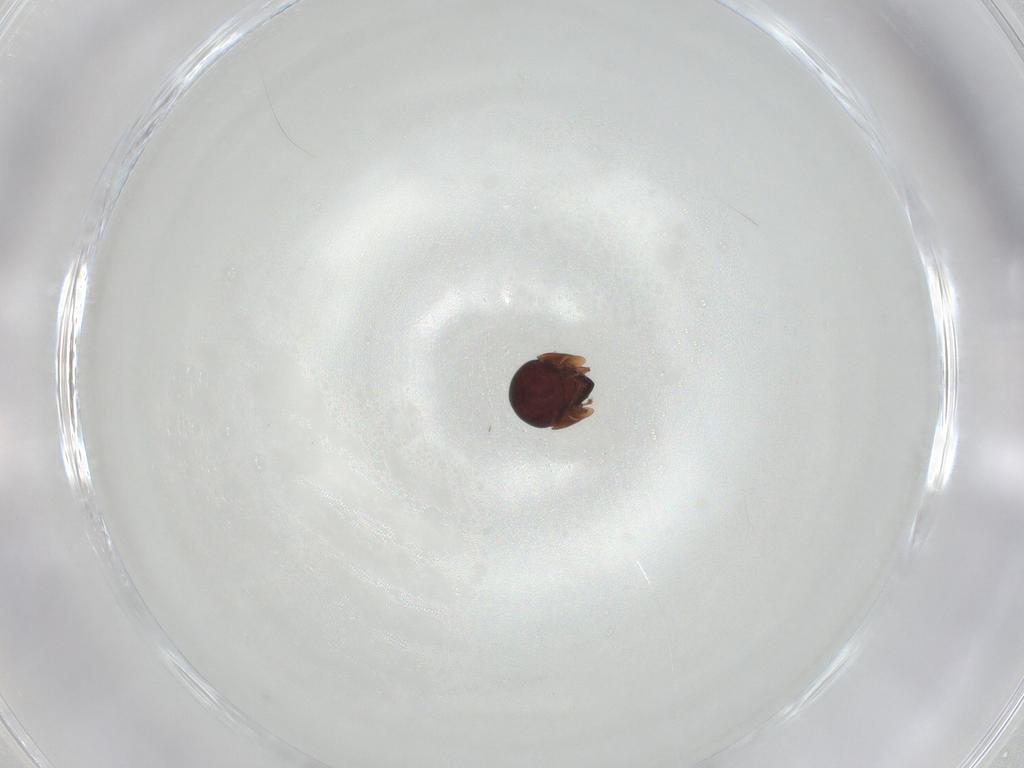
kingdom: Animalia
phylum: Arthropoda
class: Arachnida
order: Sarcoptiformes
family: Galumnidae
